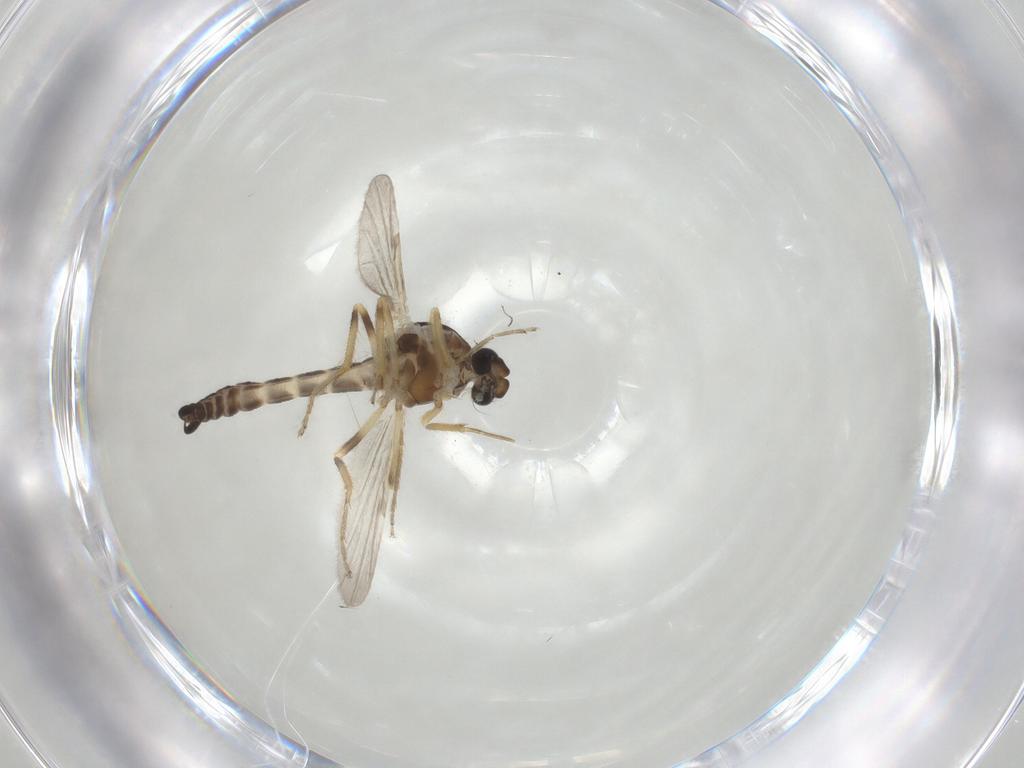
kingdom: Animalia
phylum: Arthropoda
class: Insecta
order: Diptera
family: Ceratopogonidae
